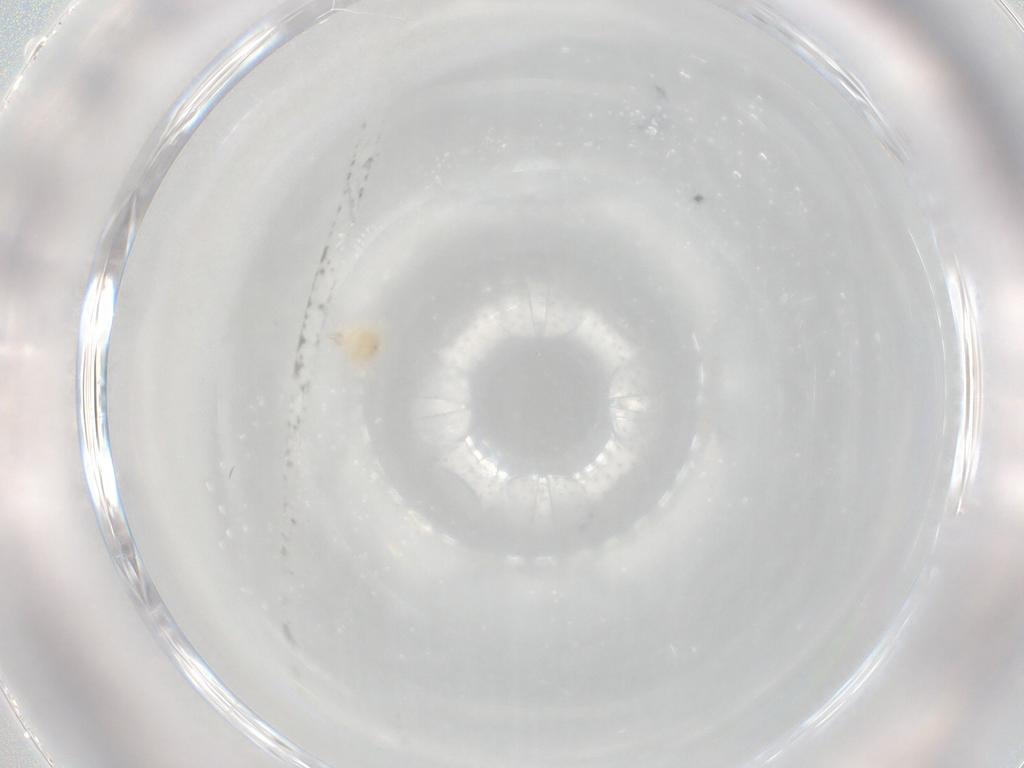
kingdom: Animalia
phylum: Arthropoda
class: Arachnida
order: Trombidiformes
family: Cunaxidae
